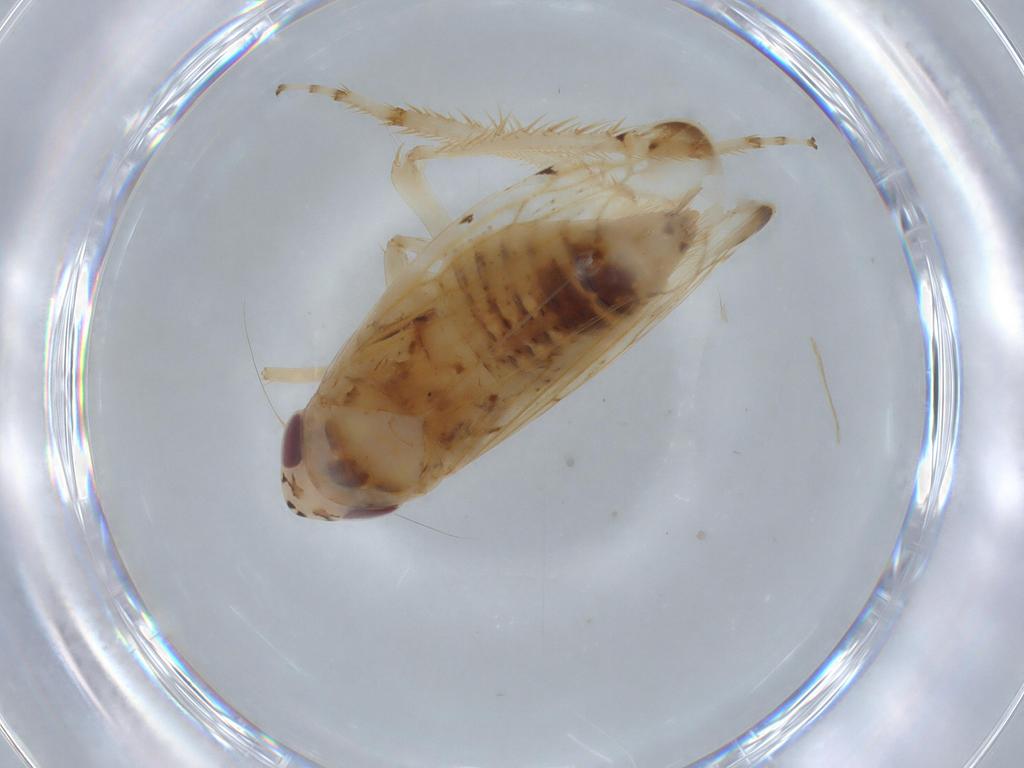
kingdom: Animalia
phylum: Arthropoda
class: Insecta
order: Hemiptera
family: Cicadellidae
